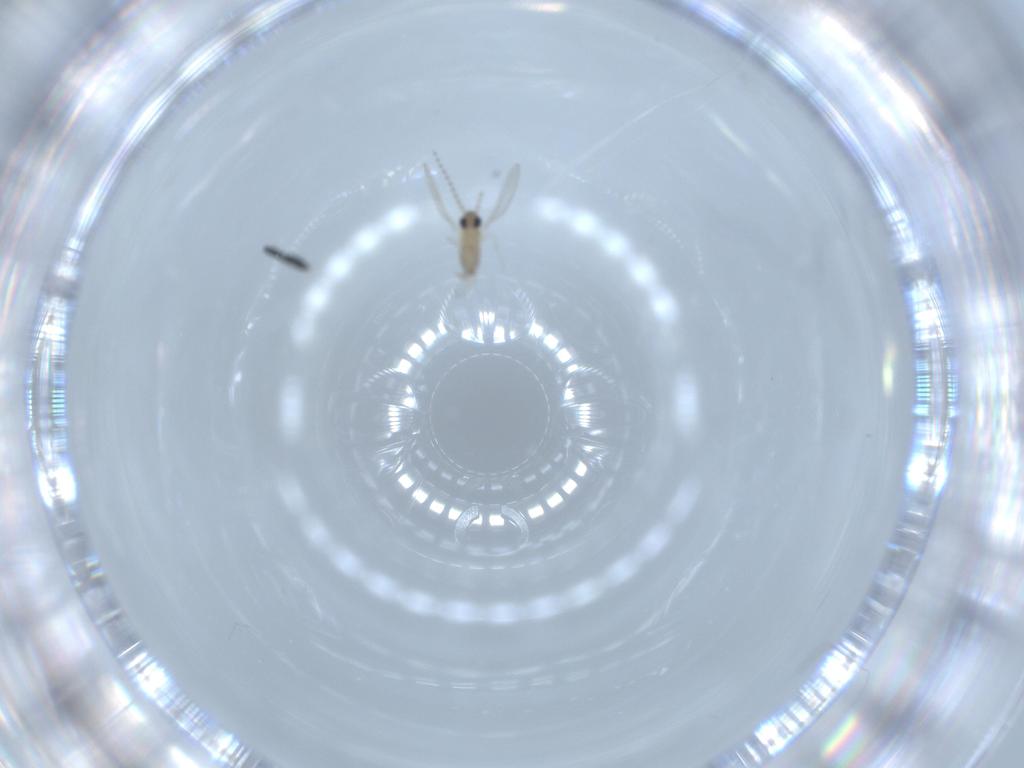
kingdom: Animalia
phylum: Arthropoda
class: Insecta
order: Diptera
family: Cecidomyiidae
